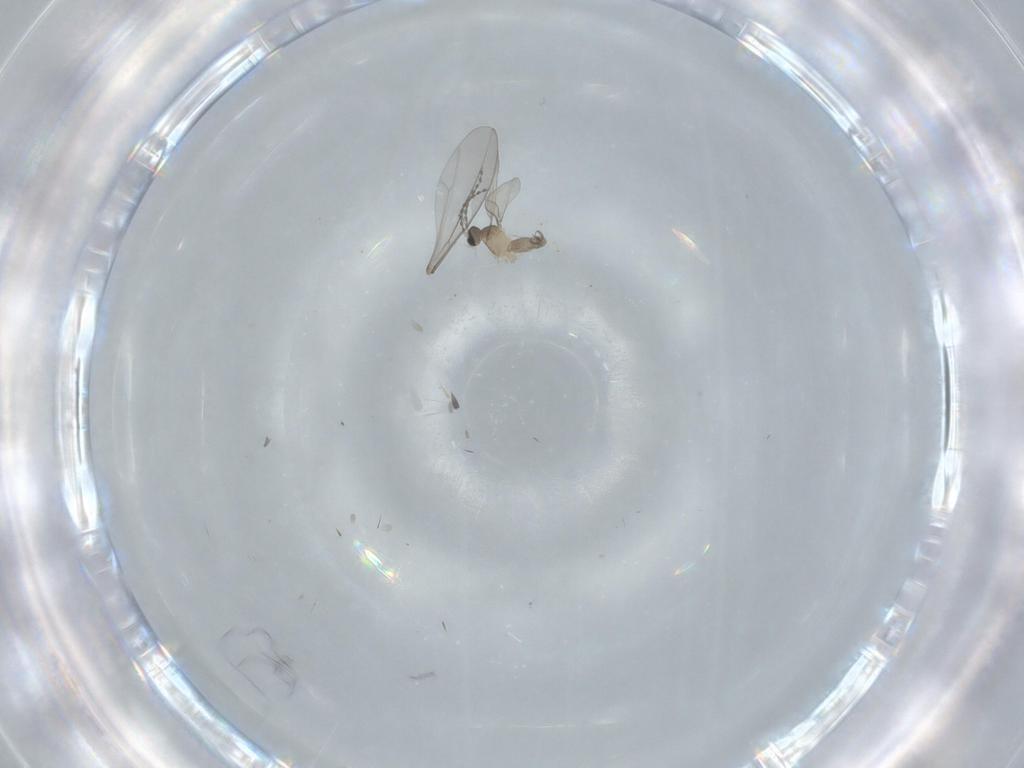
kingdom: Animalia
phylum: Arthropoda
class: Insecta
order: Diptera
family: Cecidomyiidae
